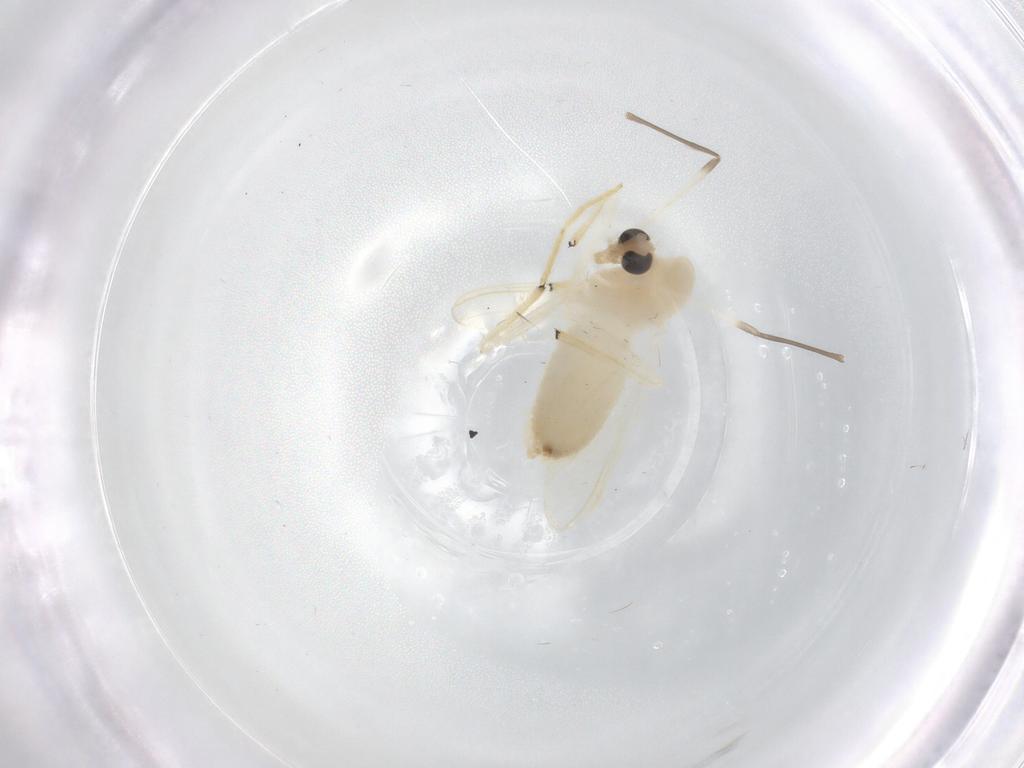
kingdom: Animalia
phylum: Arthropoda
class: Insecta
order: Diptera
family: Chironomidae
